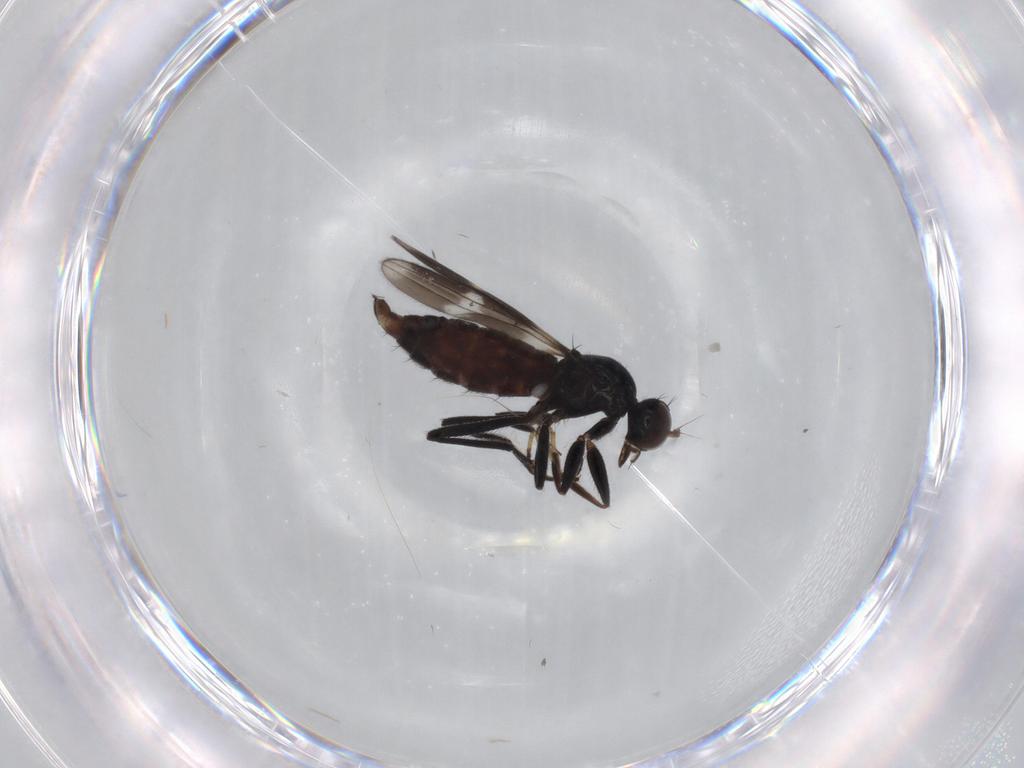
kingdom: Animalia
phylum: Arthropoda
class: Insecta
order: Diptera
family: Hybotidae
